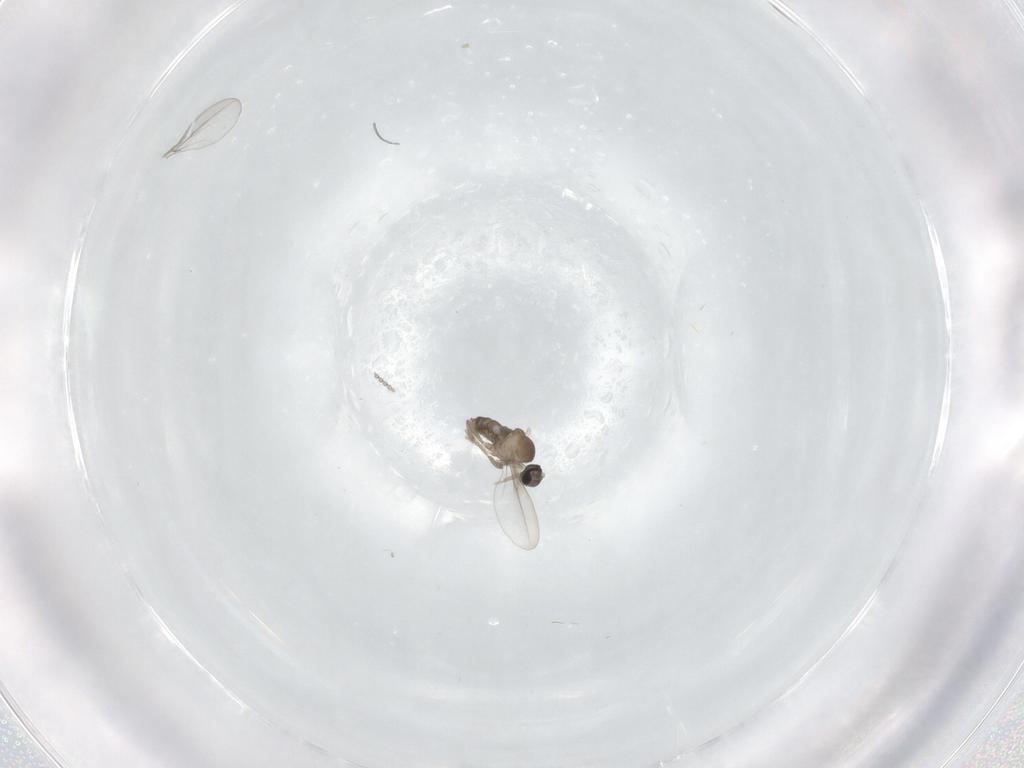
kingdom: Animalia
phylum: Arthropoda
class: Insecta
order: Diptera
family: Cecidomyiidae
